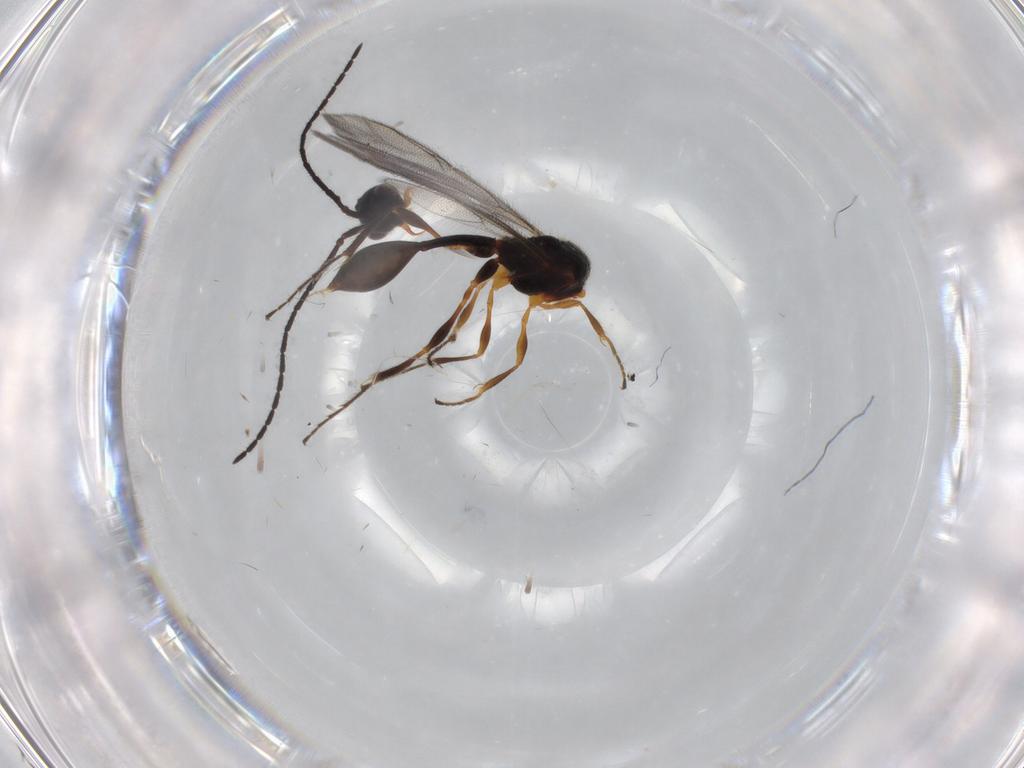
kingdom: Animalia
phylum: Arthropoda
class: Insecta
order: Hymenoptera
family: Diapriidae
